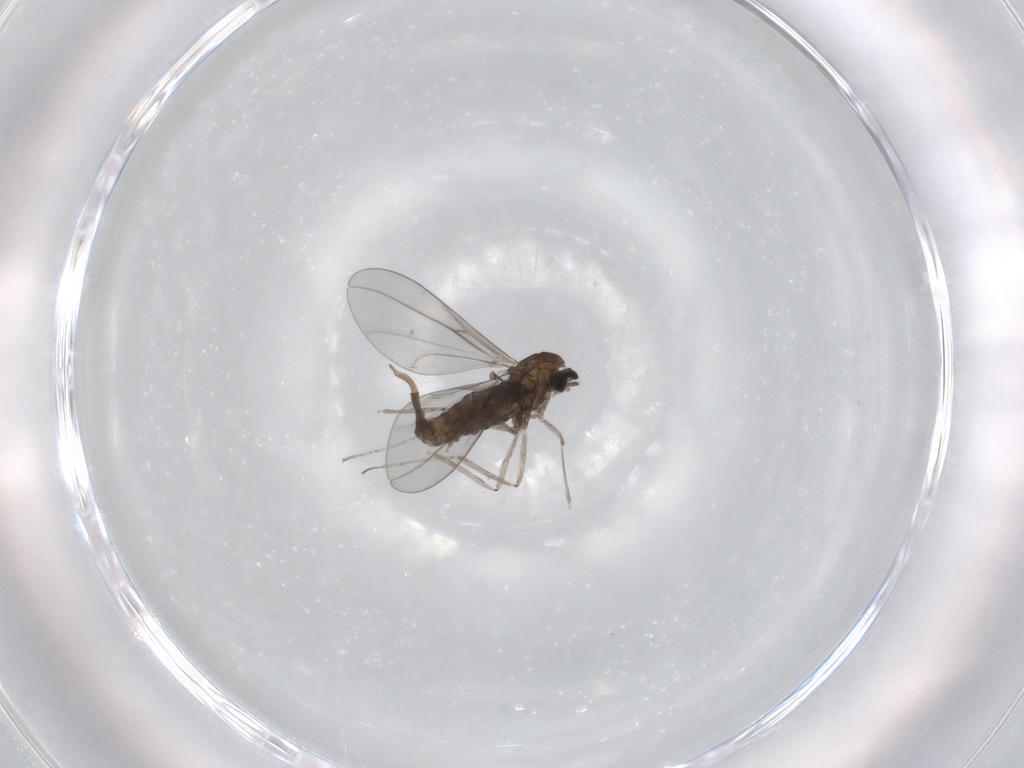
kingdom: Animalia
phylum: Arthropoda
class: Insecta
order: Diptera
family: Cecidomyiidae
